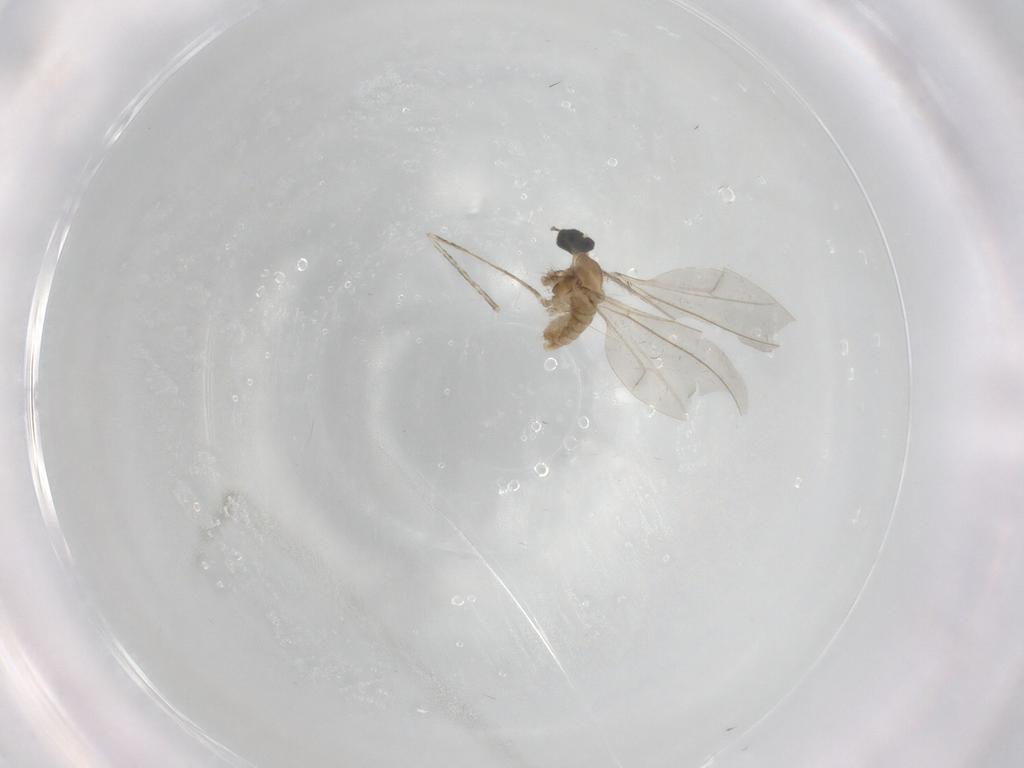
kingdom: Animalia
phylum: Arthropoda
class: Insecta
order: Diptera
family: Cecidomyiidae
